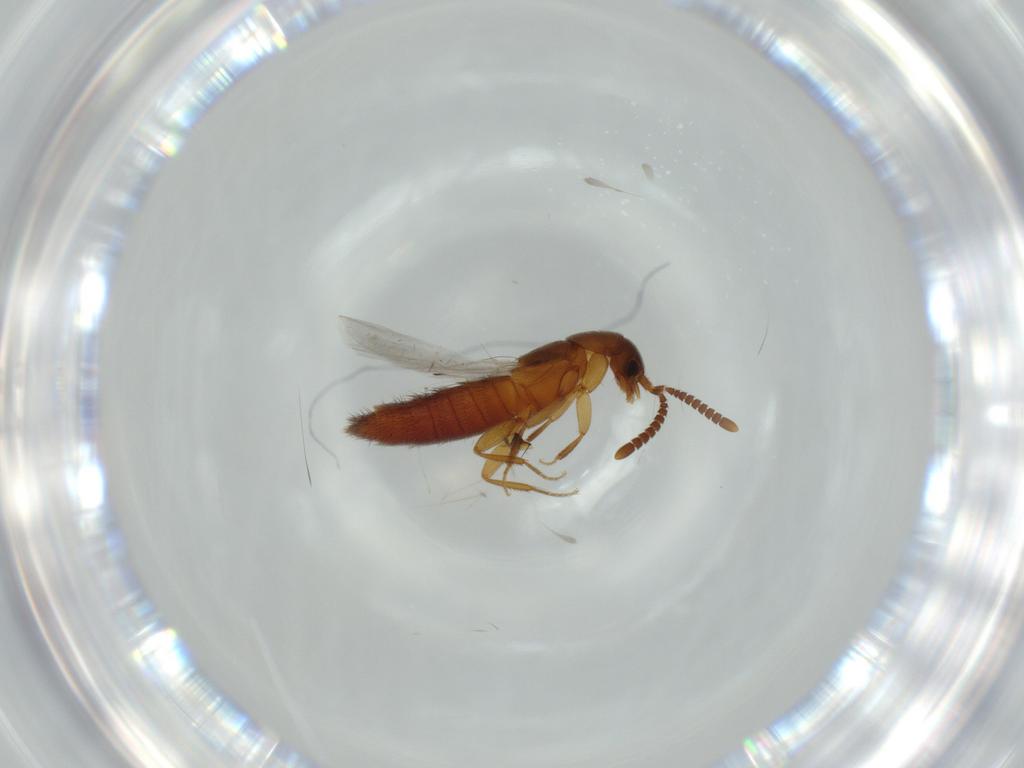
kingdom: Animalia
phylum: Arthropoda
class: Insecta
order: Coleoptera
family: Staphylinidae
